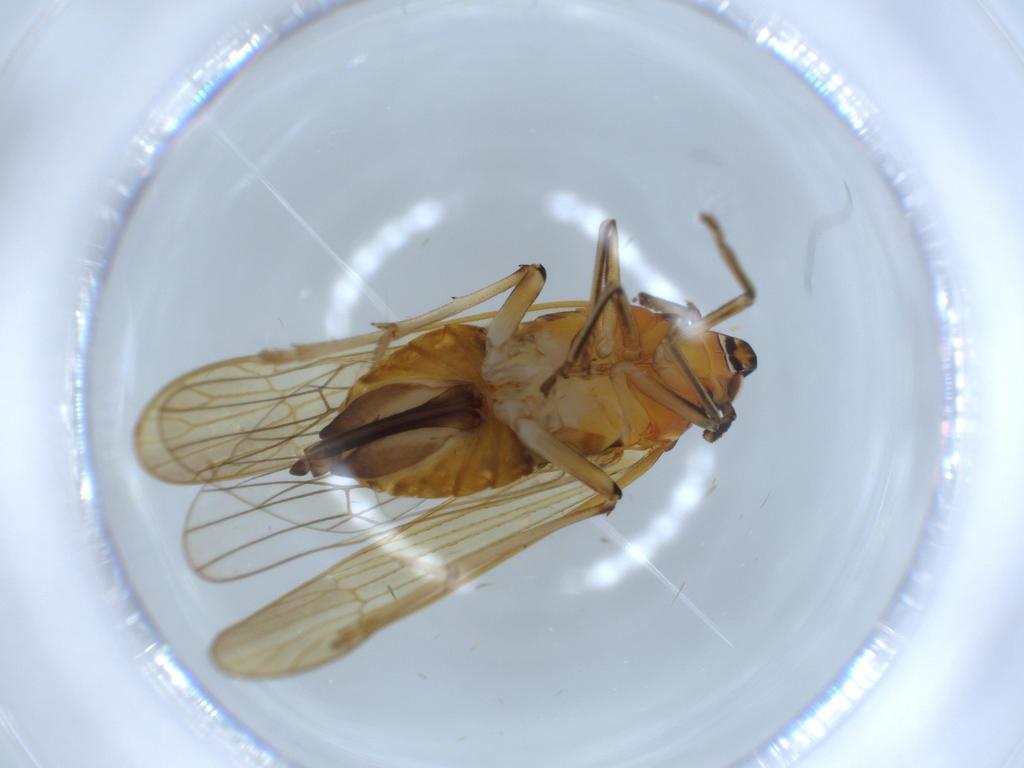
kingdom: Animalia
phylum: Arthropoda
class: Insecta
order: Hemiptera
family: Delphacidae
